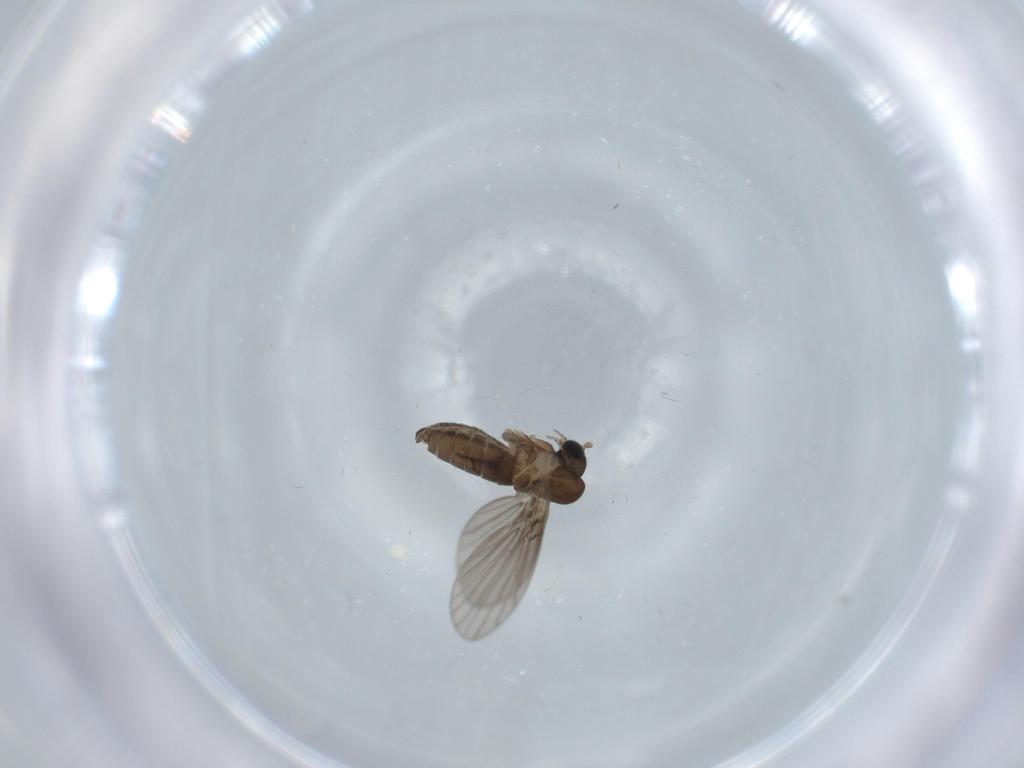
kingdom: Animalia
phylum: Arthropoda
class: Insecta
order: Diptera
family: Psychodidae
